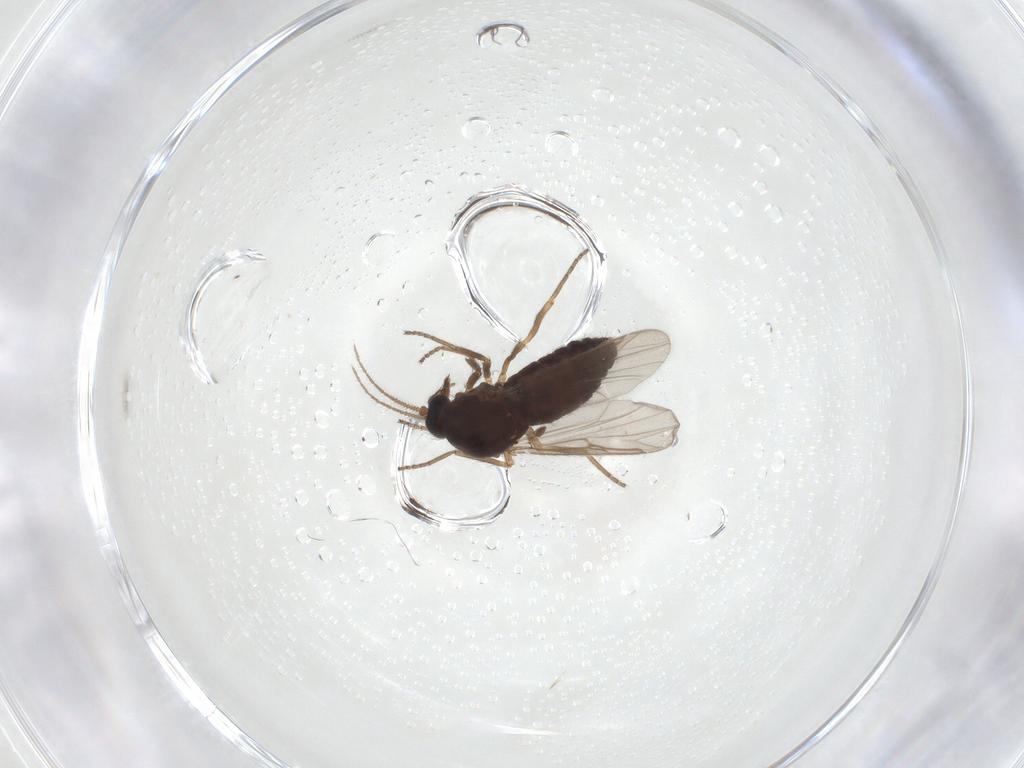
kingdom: Animalia
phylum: Arthropoda
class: Insecta
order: Diptera
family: Ceratopogonidae
